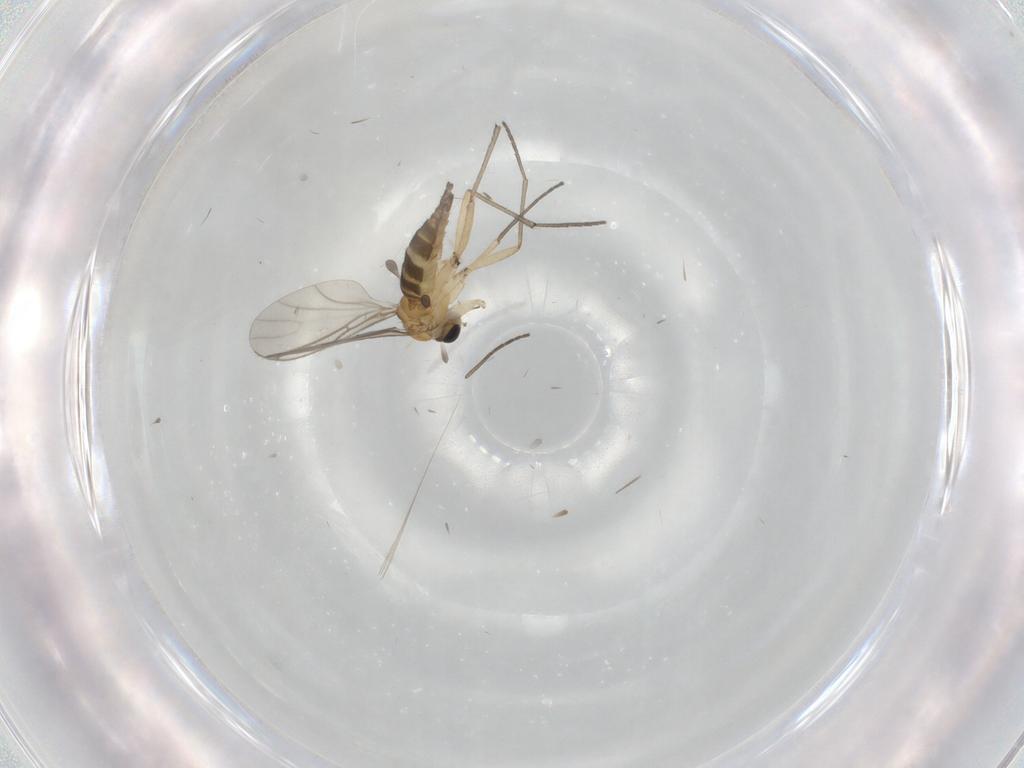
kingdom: Animalia
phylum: Arthropoda
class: Insecta
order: Diptera
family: Sciaridae
